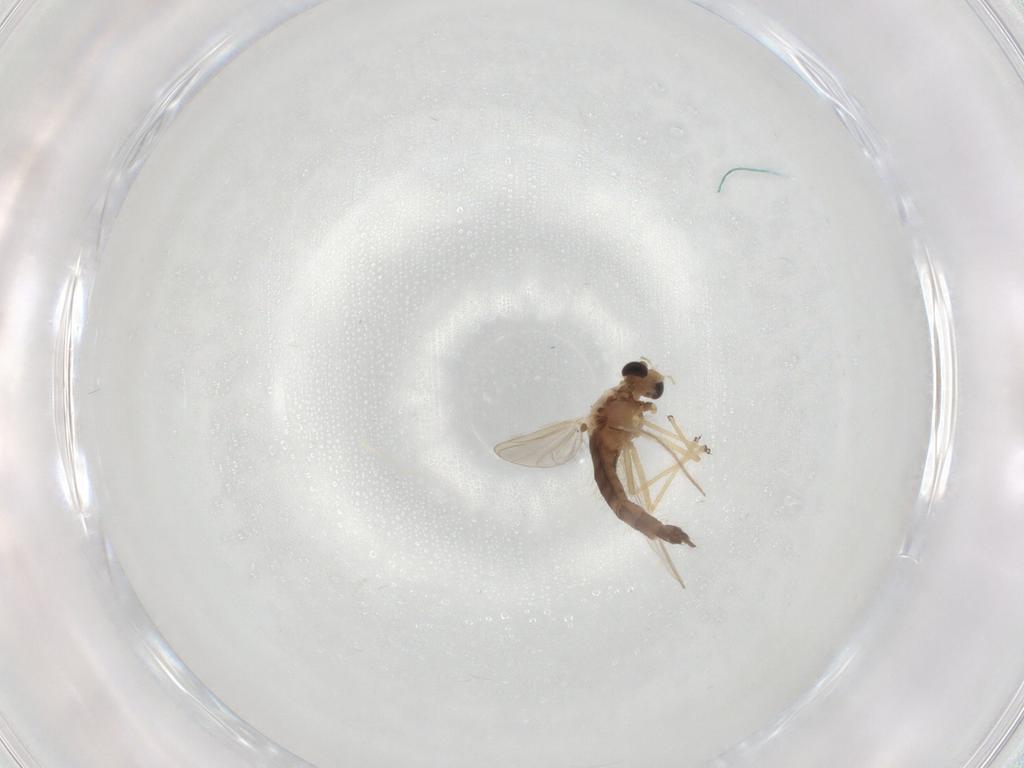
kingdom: Animalia
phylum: Arthropoda
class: Insecta
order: Diptera
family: Chironomidae
